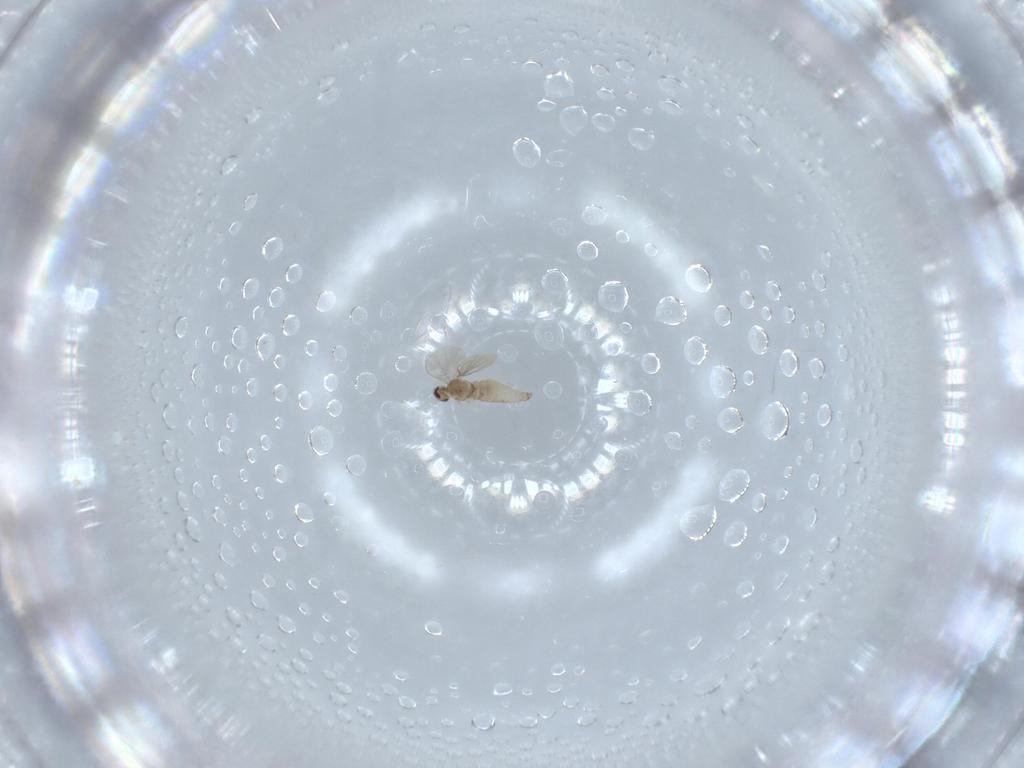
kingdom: Animalia
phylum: Arthropoda
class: Insecta
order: Diptera
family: Cecidomyiidae
